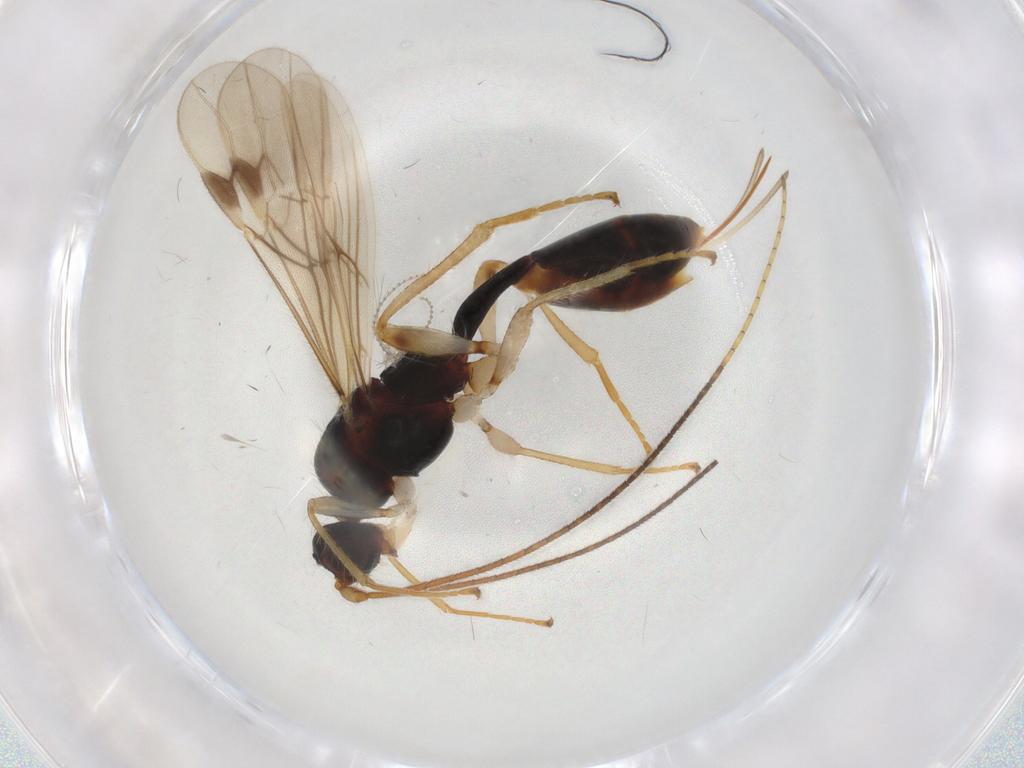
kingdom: Animalia
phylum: Arthropoda
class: Insecta
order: Hymenoptera
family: Braconidae
